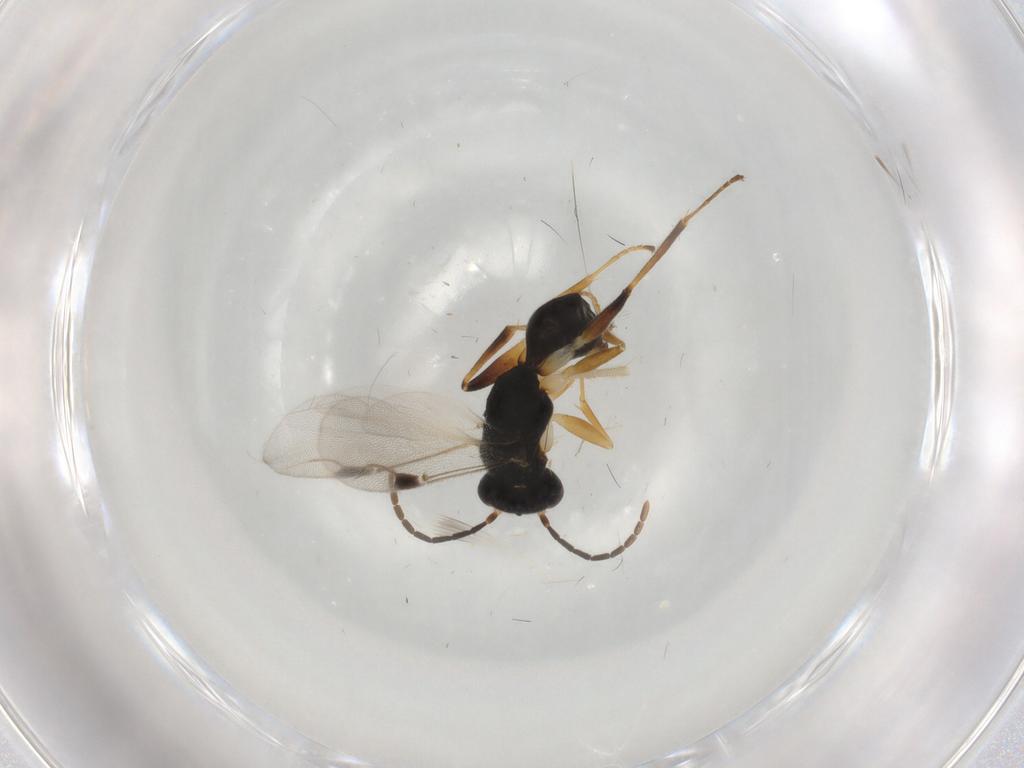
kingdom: Animalia
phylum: Arthropoda
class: Insecta
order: Hymenoptera
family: Dryinidae
